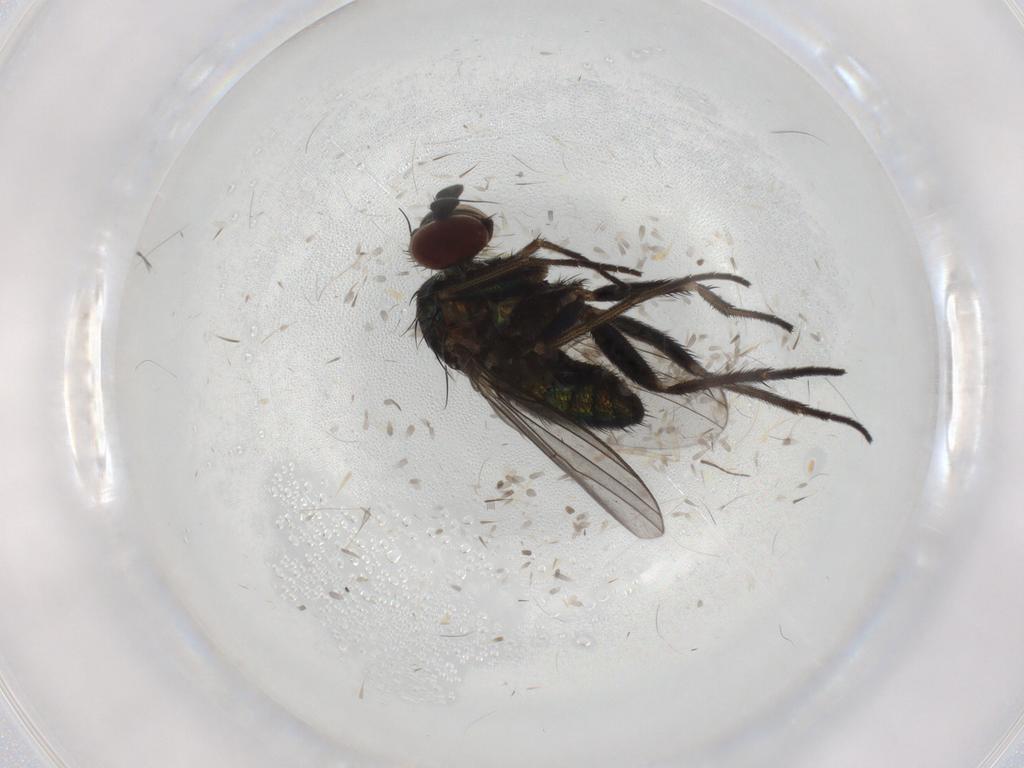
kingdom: Animalia
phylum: Arthropoda
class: Insecta
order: Diptera
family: Dolichopodidae
